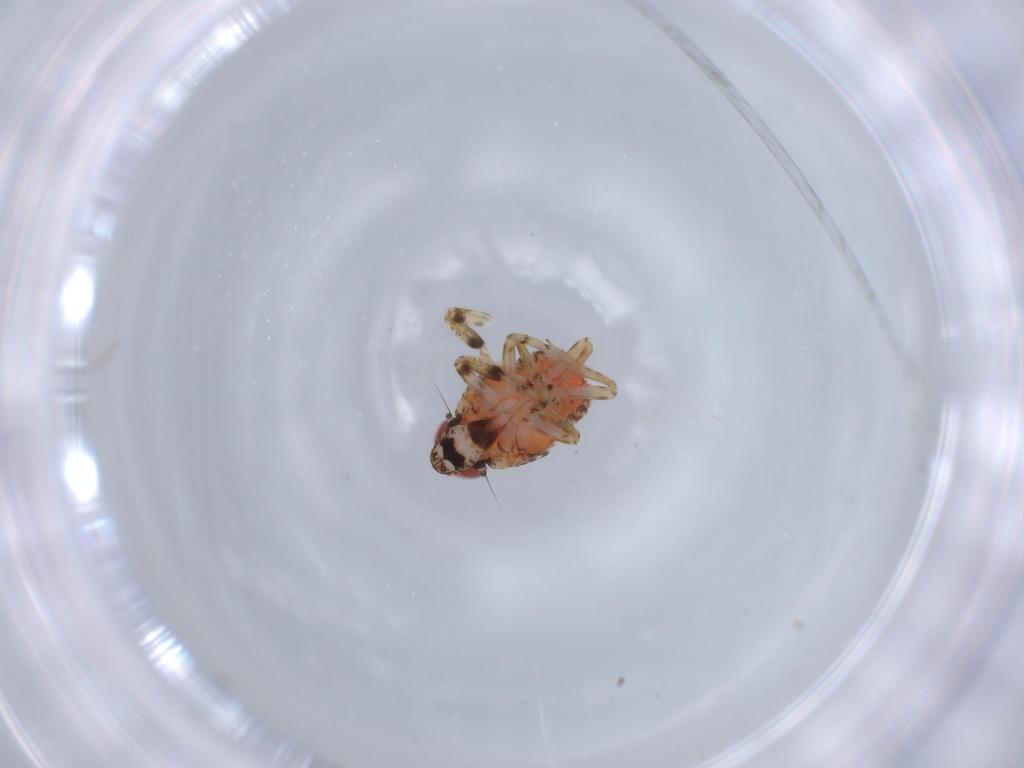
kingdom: Animalia
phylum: Arthropoda
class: Insecta
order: Hemiptera
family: Issidae
